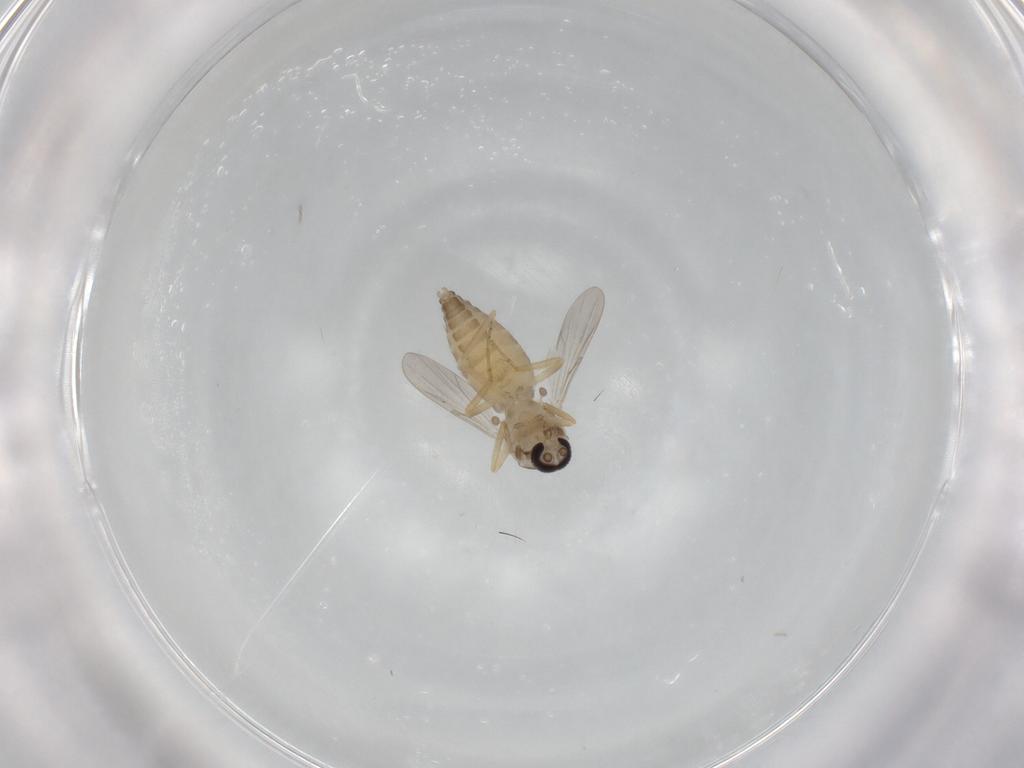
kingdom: Animalia
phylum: Arthropoda
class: Insecta
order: Diptera
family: Ceratopogonidae
